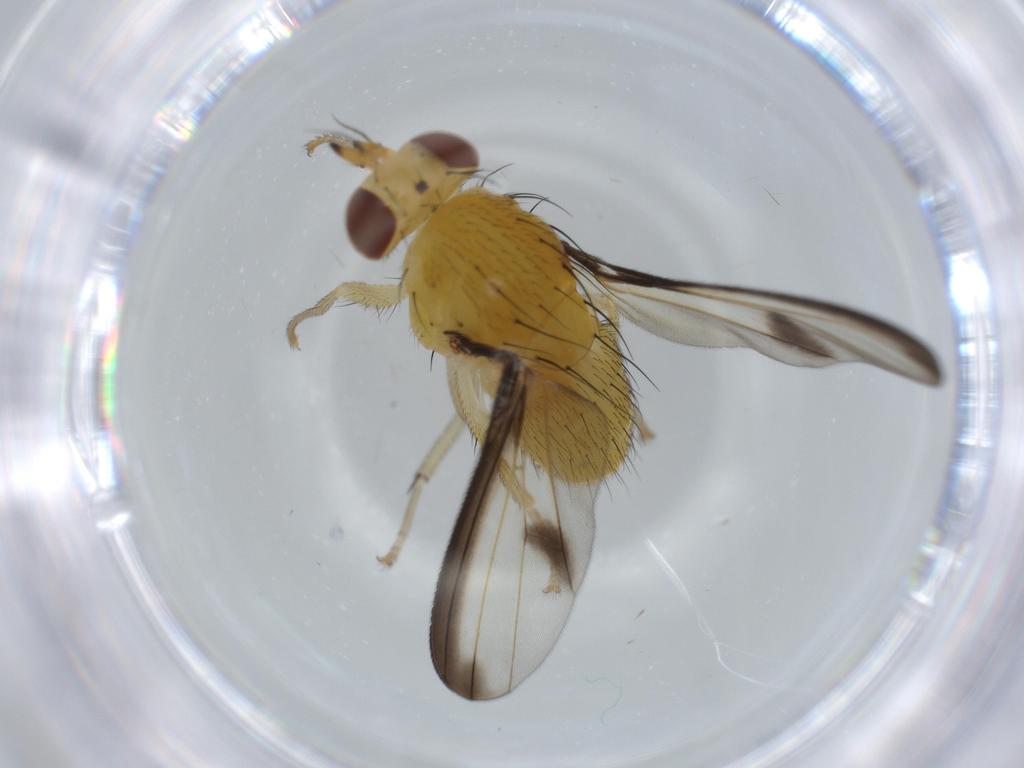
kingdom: Animalia
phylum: Arthropoda
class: Insecta
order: Diptera
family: Lauxaniidae
